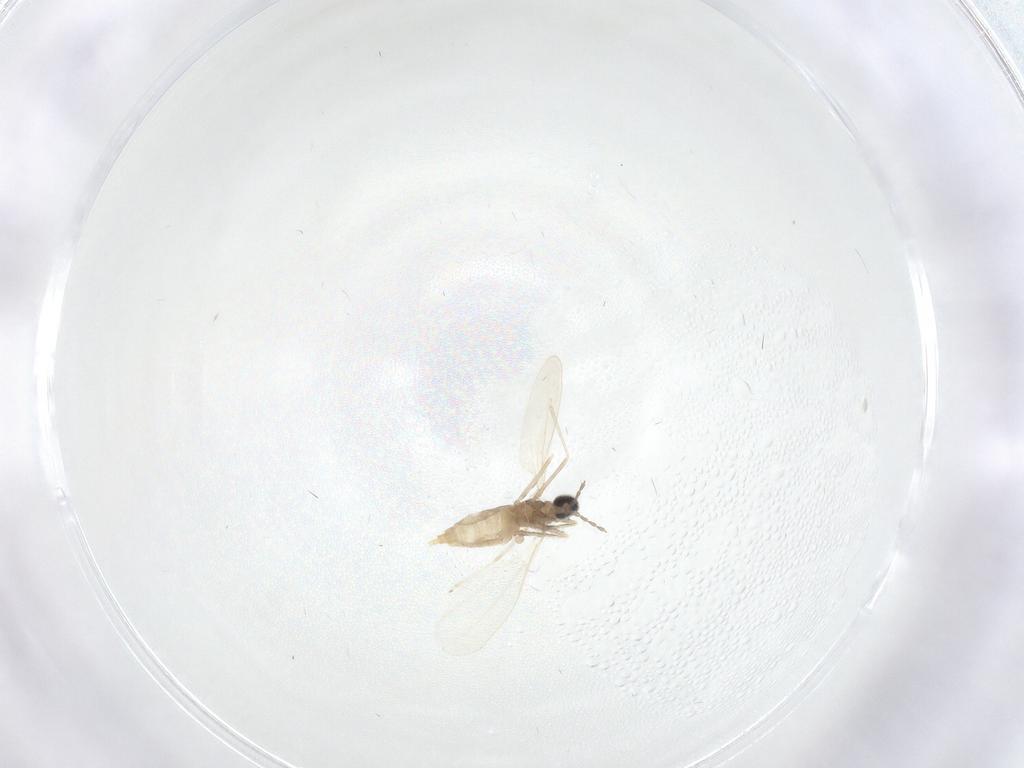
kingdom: Animalia
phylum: Arthropoda
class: Insecta
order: Diptera
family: Cecidomyiidae
